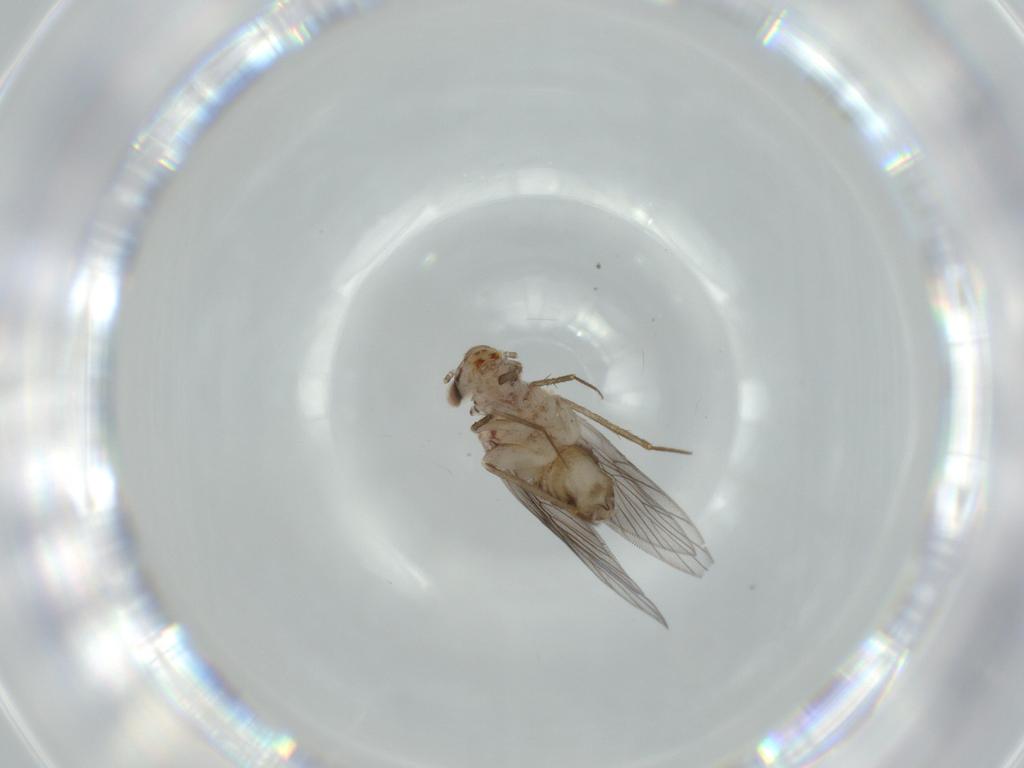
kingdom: Animalia
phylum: Arthropoda
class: Insecta
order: Psocodea
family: Lepidopsocidae
